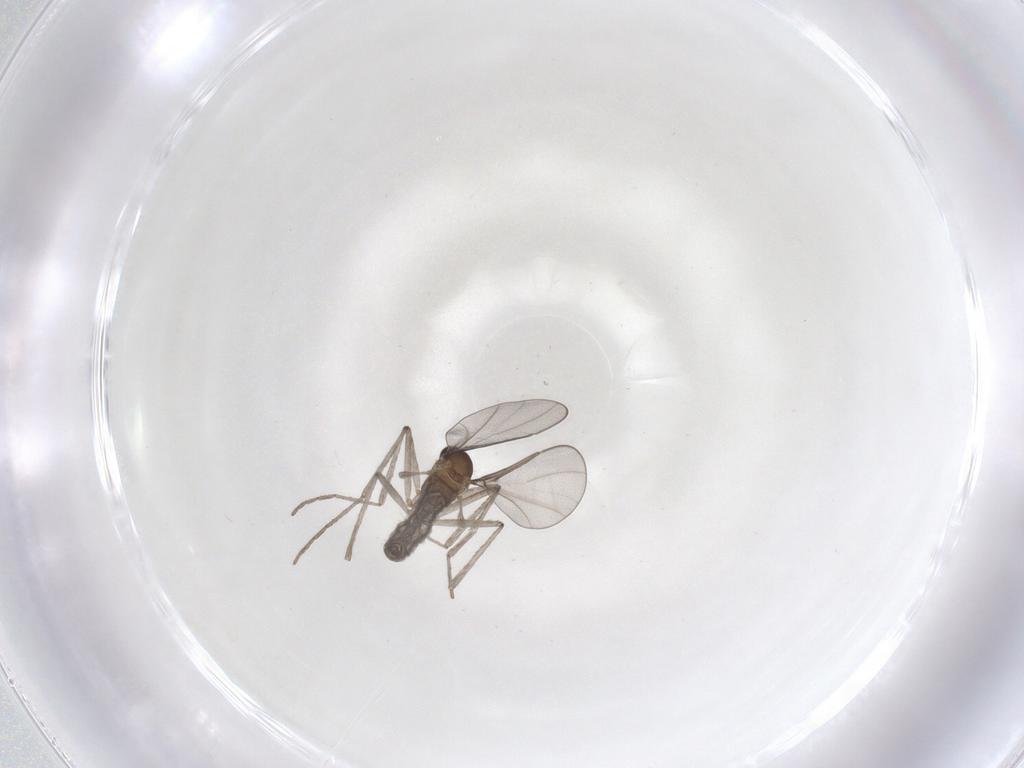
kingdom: Animalia
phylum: Arthropoda
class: Insecta
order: Diptera
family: Cecidomyiidae
